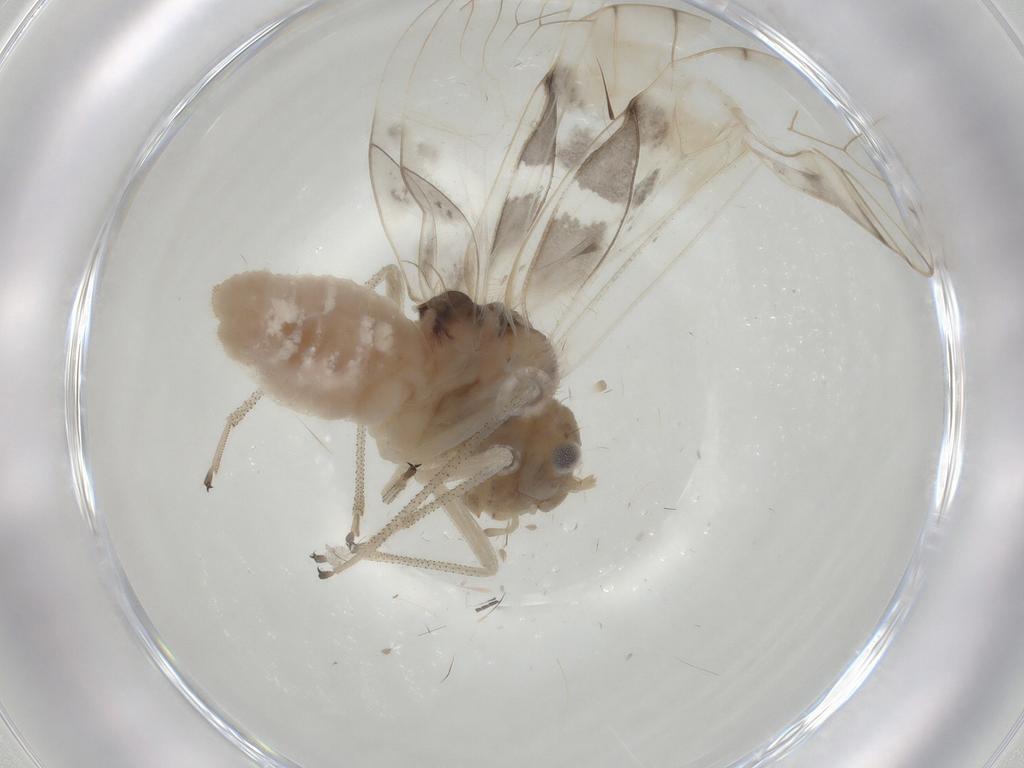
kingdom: Animalia
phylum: Arthropoda
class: Insecta
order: Psocodea
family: Amphipsocidae
